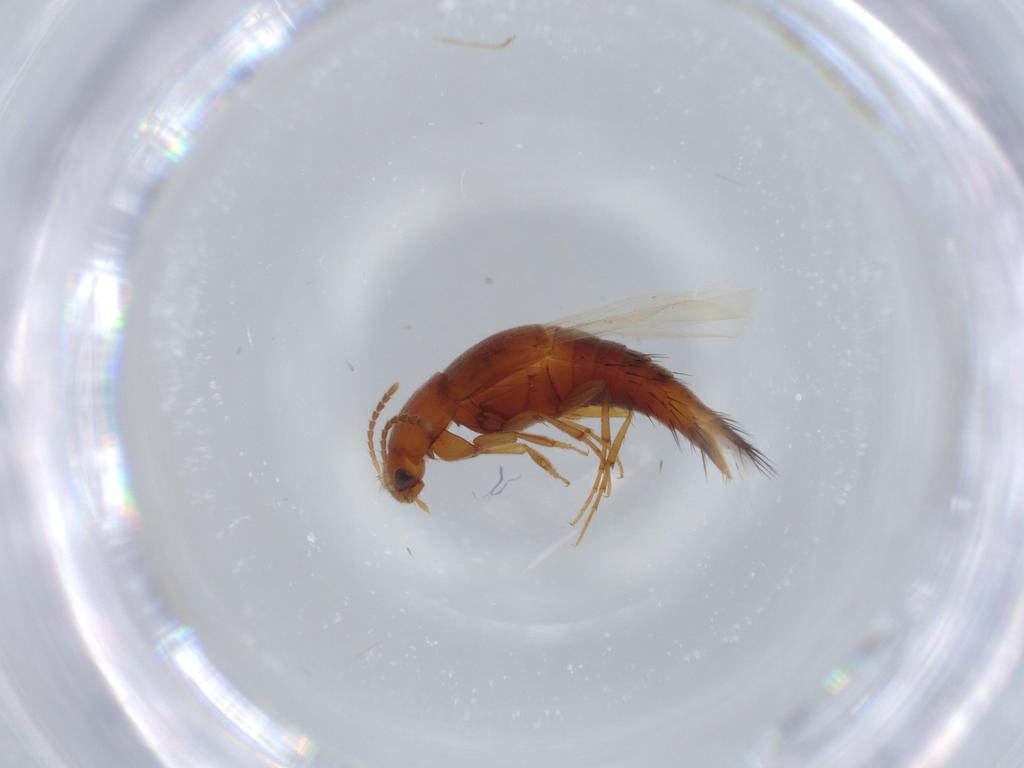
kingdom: Animalia
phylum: Arthropoda
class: Insecta
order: Coleoptera
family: Staphylinidae
